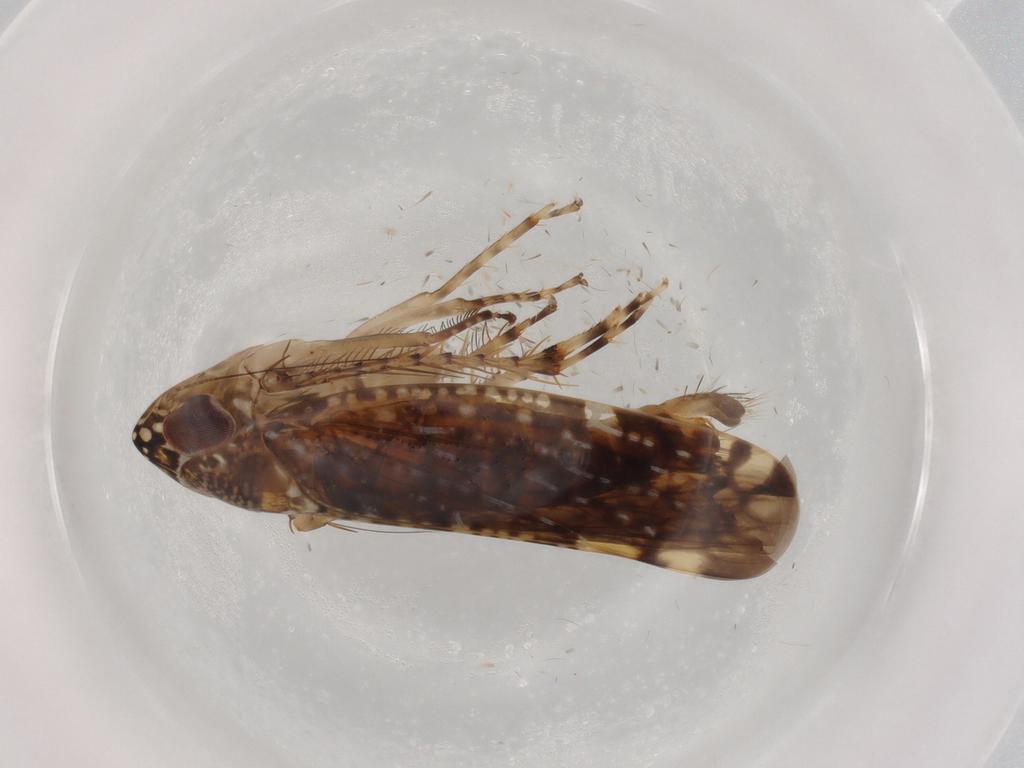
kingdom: Animalia
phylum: Arthropoda
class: Insecta
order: Hemiptera
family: Cicadellidae
